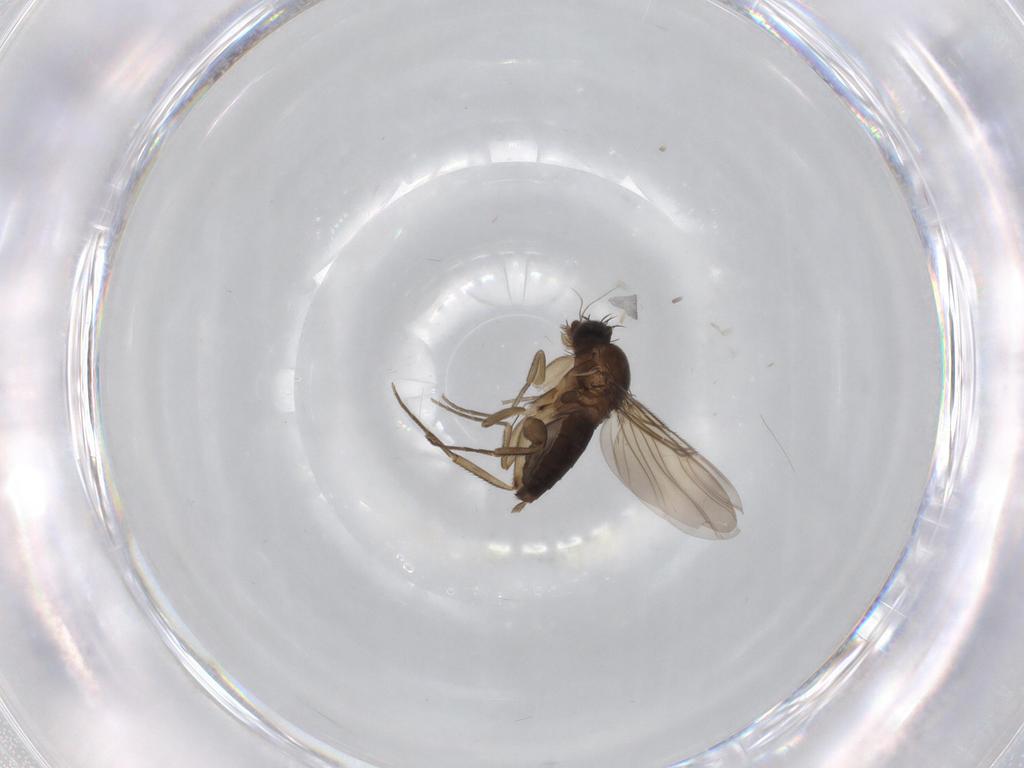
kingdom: Animalia
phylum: Arthropoda
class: Insecta
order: Diptera
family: Phoridae
